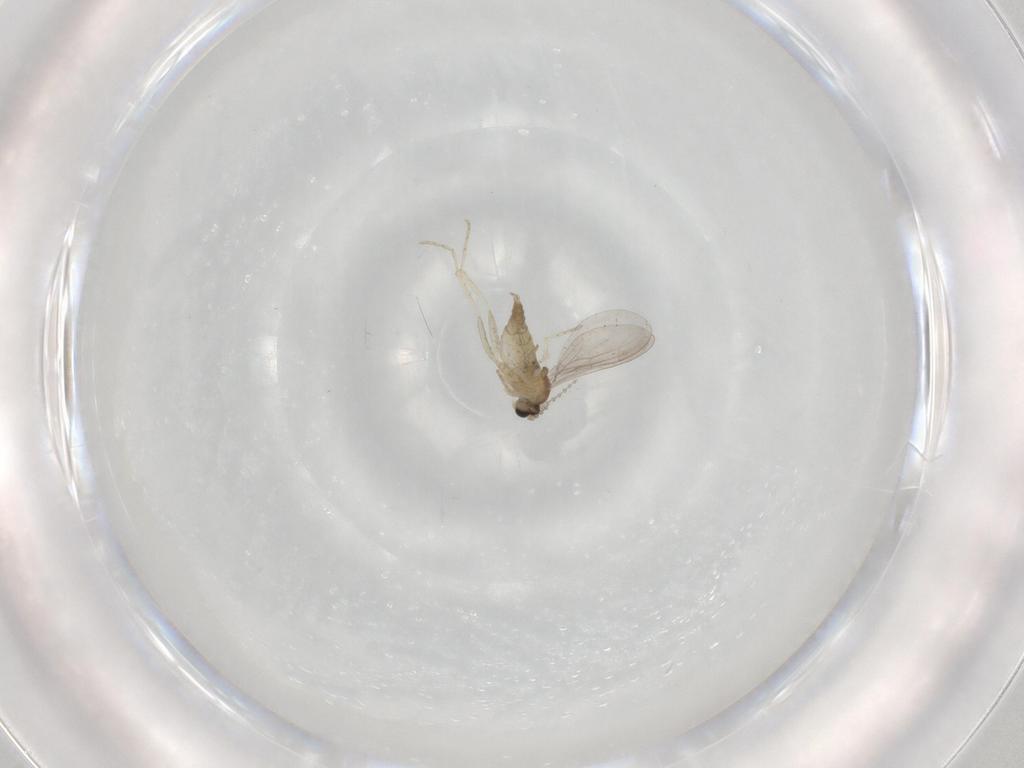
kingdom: Animalia
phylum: Arthropoda
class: Insecta
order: Diptera
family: Cecidomyiidae
